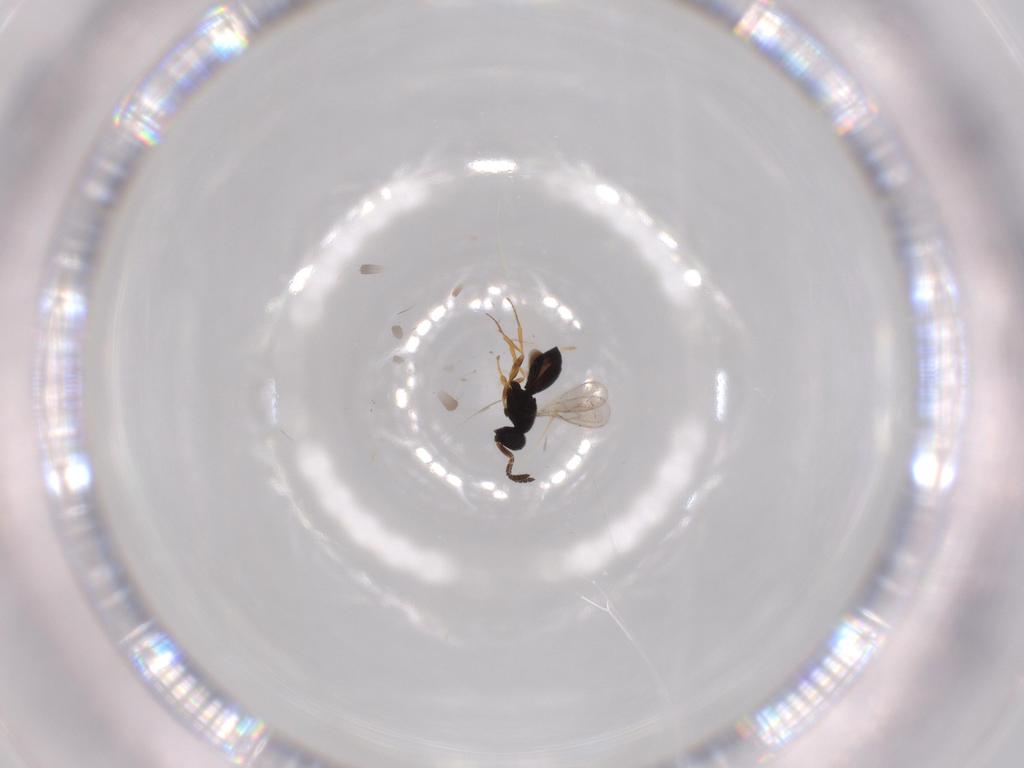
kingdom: Animalia
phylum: Arthropoda
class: Insecta
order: Hymenoptera
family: Scelionidae
